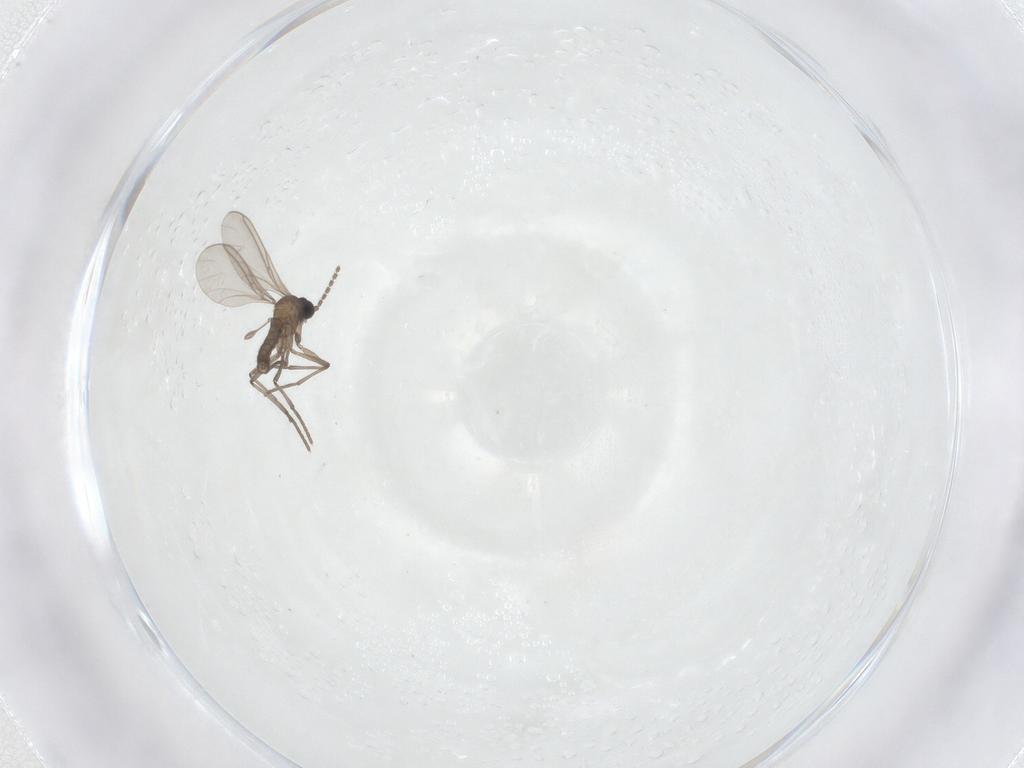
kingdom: Animalia
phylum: Arthropoda
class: Insecta
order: Diptera
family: Sciaridae
